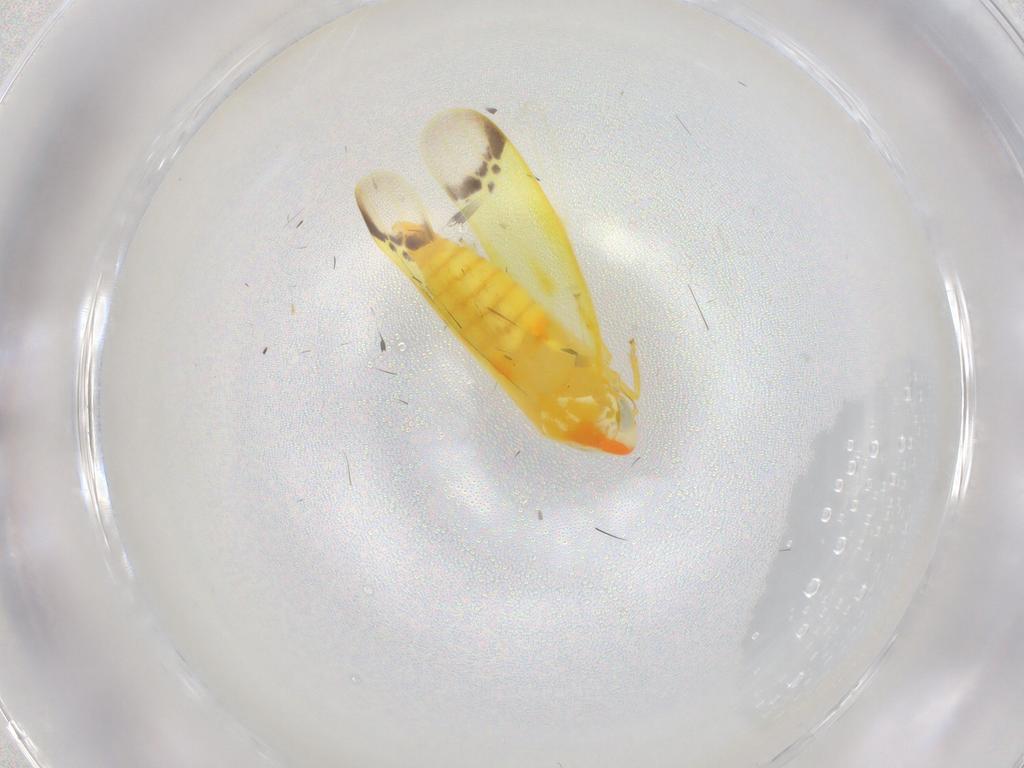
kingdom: Animalia
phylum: Arthropoda
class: Insecta
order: Hemiptera
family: Cicadellidae
